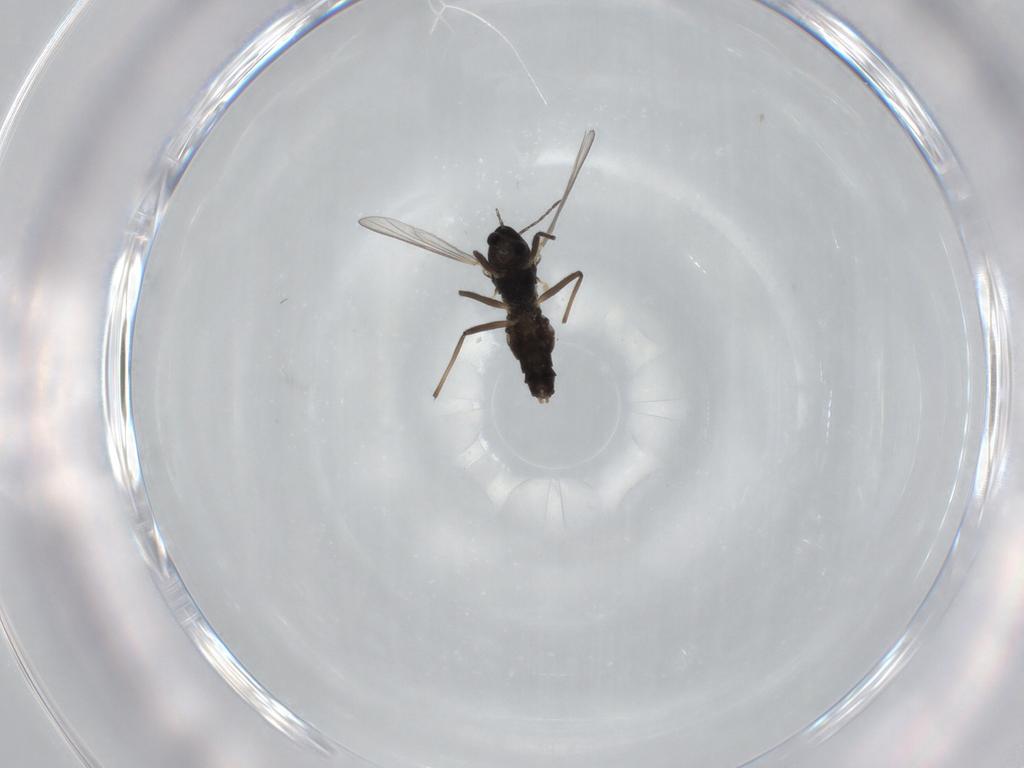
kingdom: Animalia
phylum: Arthropoda
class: Insecta
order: Diptera
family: Chironomidae
